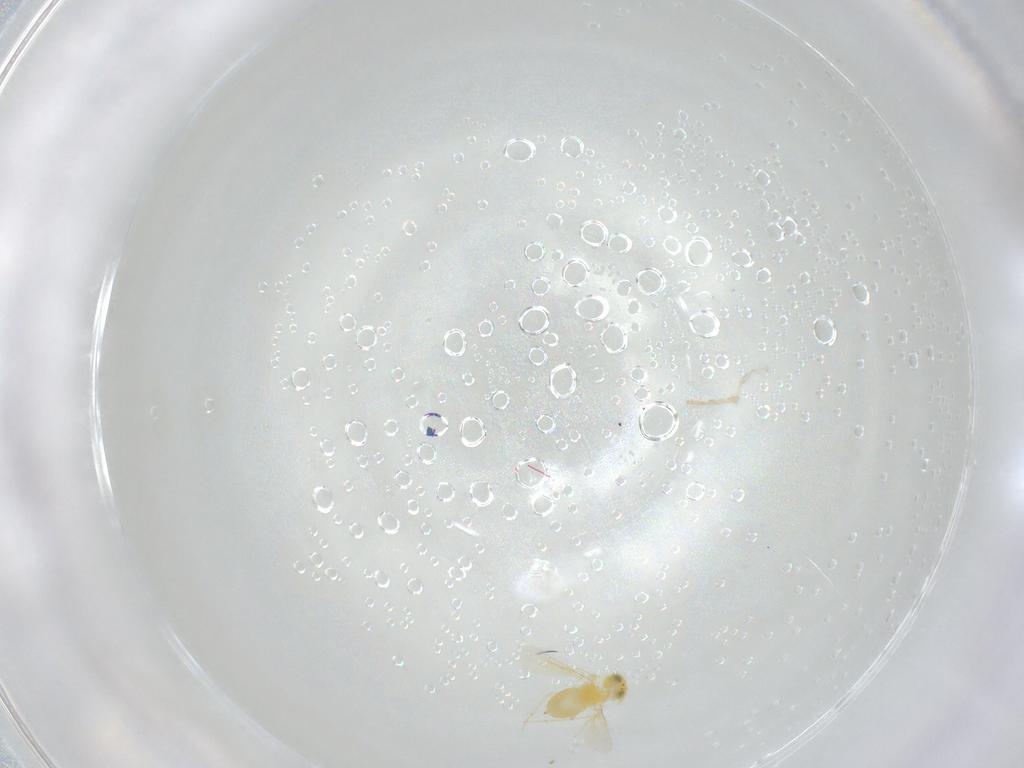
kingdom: Animalia
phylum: Arthropoda
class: Insecta
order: Hymenoptera
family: Aphelinidae
